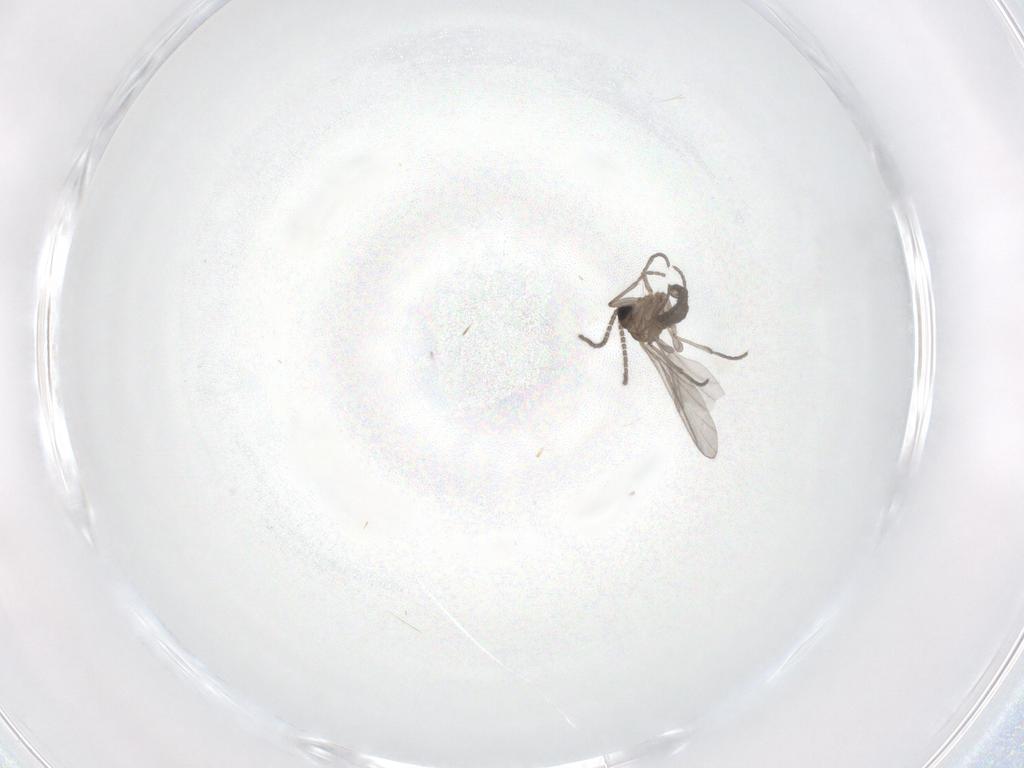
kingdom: Animalia
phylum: Arthropoda
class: Insecta
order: Diptera
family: Sciaridae
